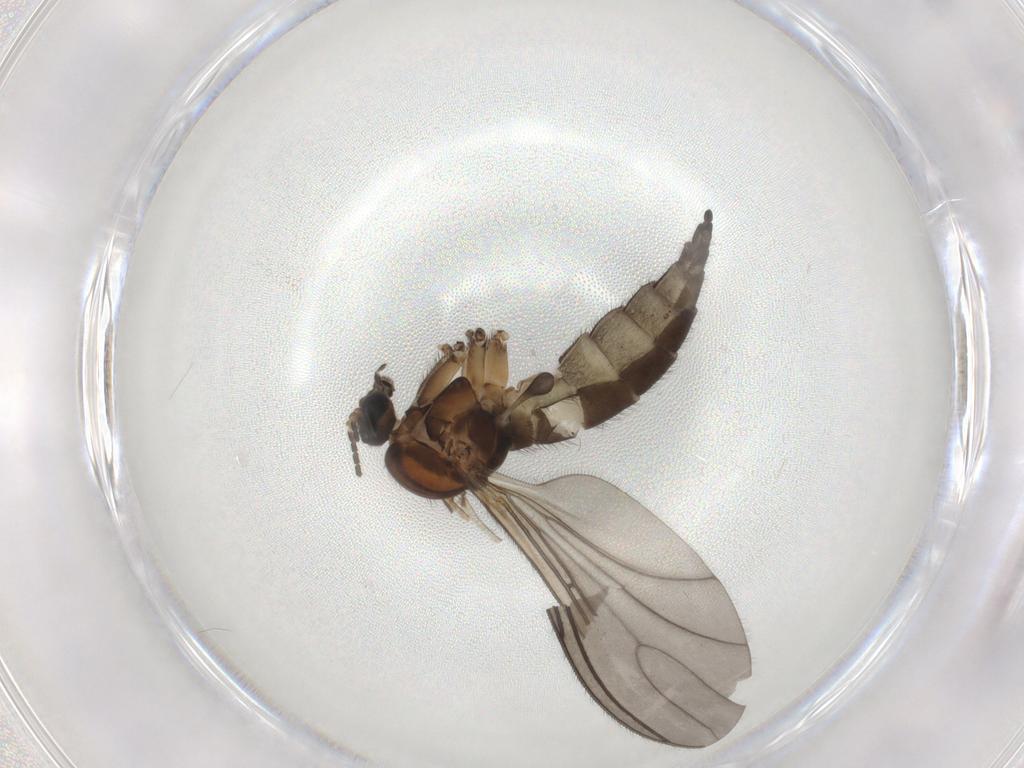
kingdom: Animalia
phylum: Arthropoda
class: Insecta
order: Diptera
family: Sciaridae
